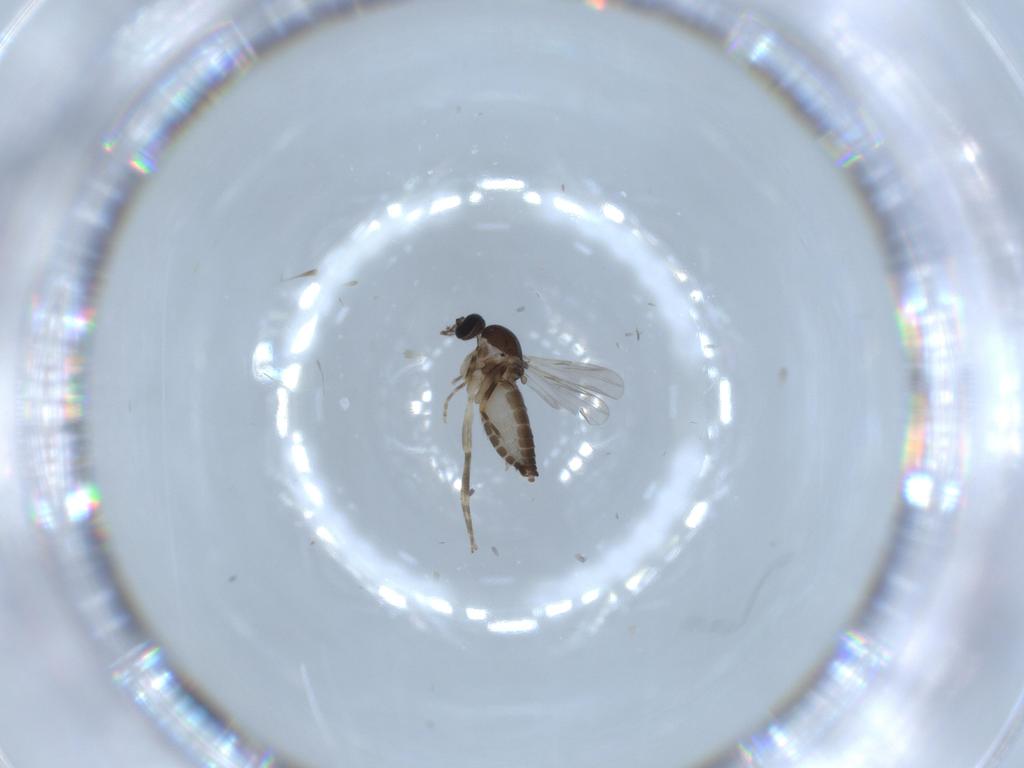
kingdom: Animalia
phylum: Arthropoda
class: Insecta
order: Diptera
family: Ceratopogonidae
